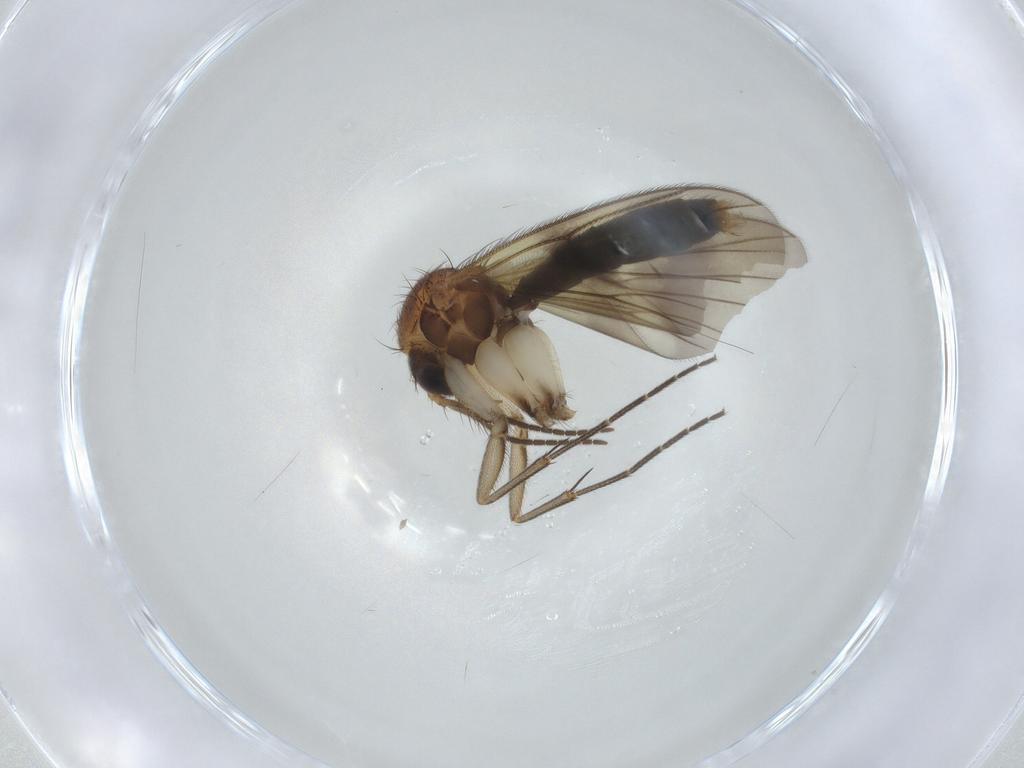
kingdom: Animalia
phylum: Arthropoda
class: Insecta
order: Diptera
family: Mycetophilidae
